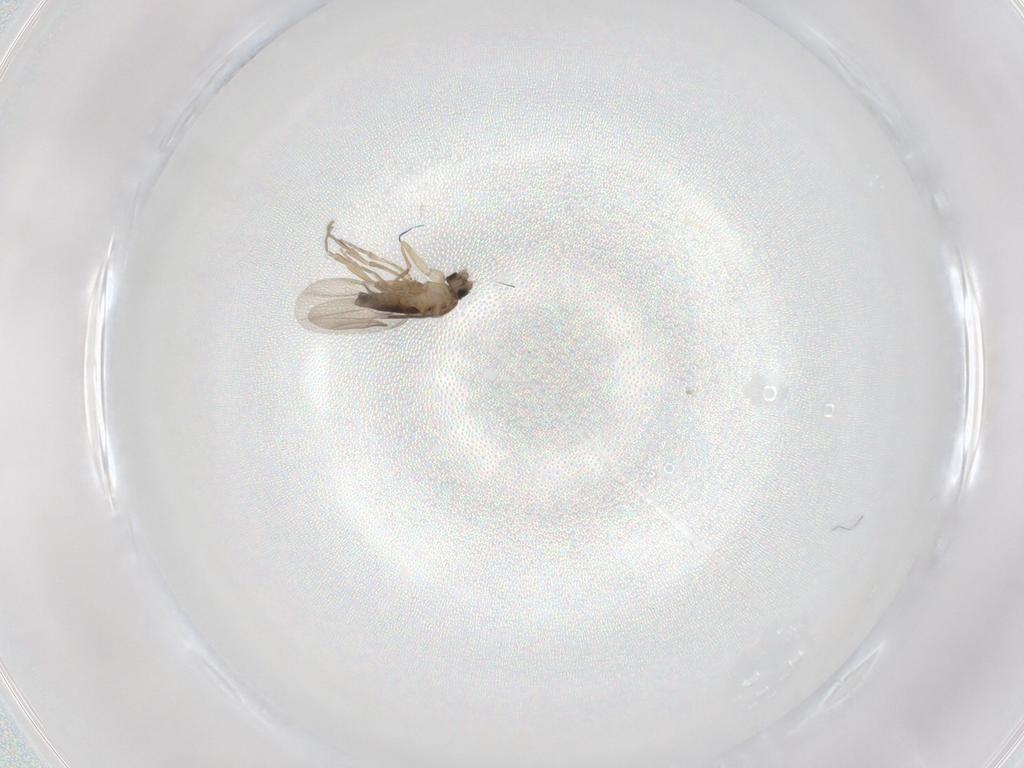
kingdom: Animalia
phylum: Arthropoda
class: Insecta
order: Diptera
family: Phoridae
